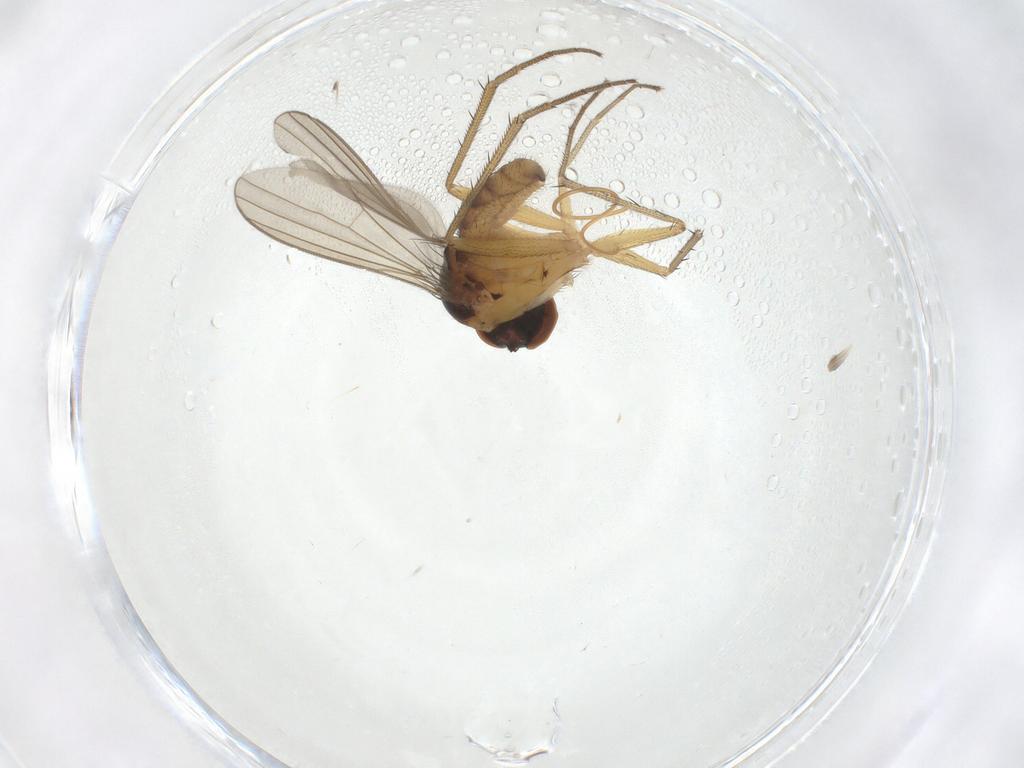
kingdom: Animalia
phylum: Arthropoda
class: Insecta
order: Diptera
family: Dolichopodidae
